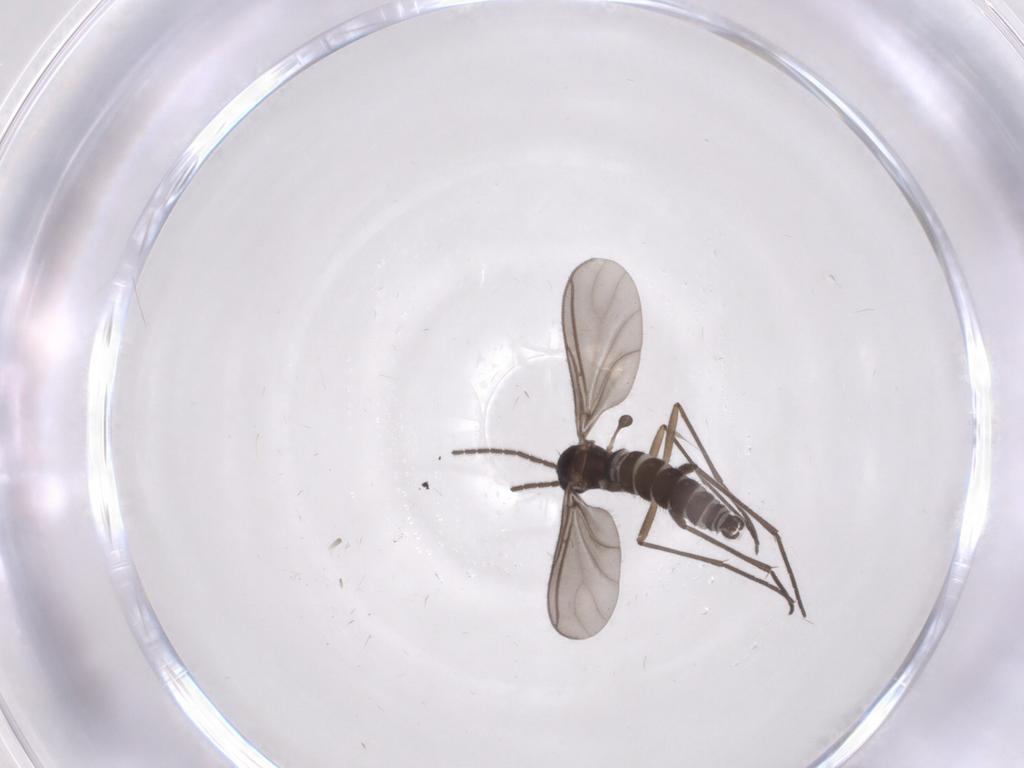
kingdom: Animalia
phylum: Arthropoda
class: Insecta
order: Diptera
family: Sciaridae
